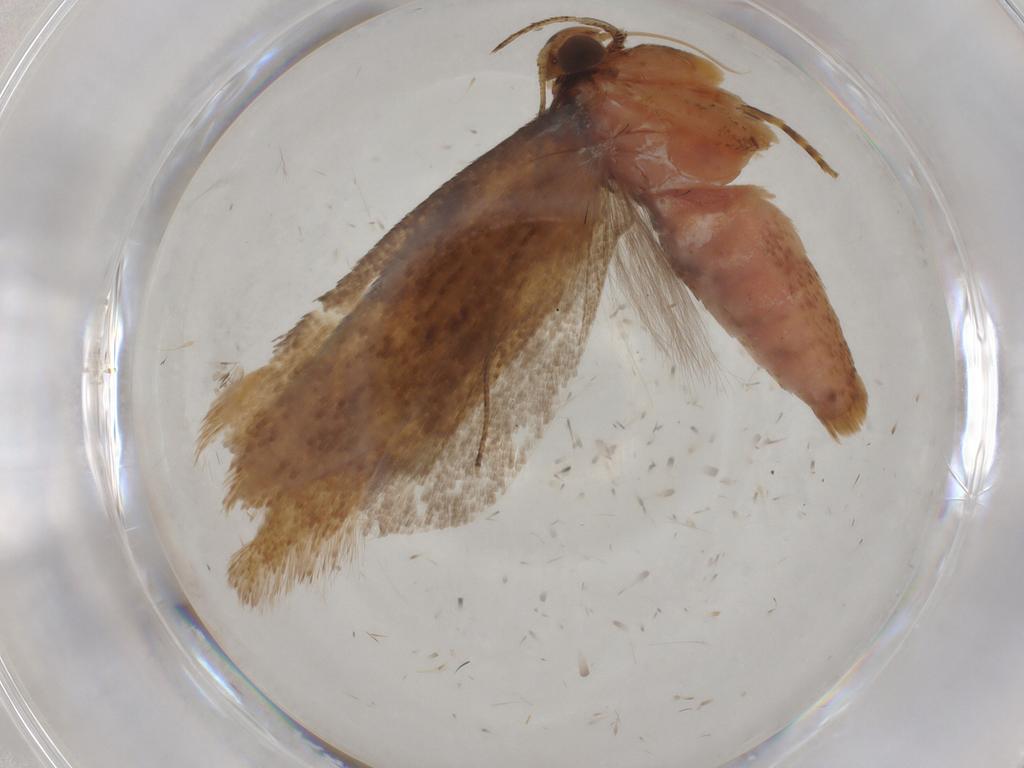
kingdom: Animalia
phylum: Arthropoda
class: Insecta
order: Lepidoptera
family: Gelechiidae
